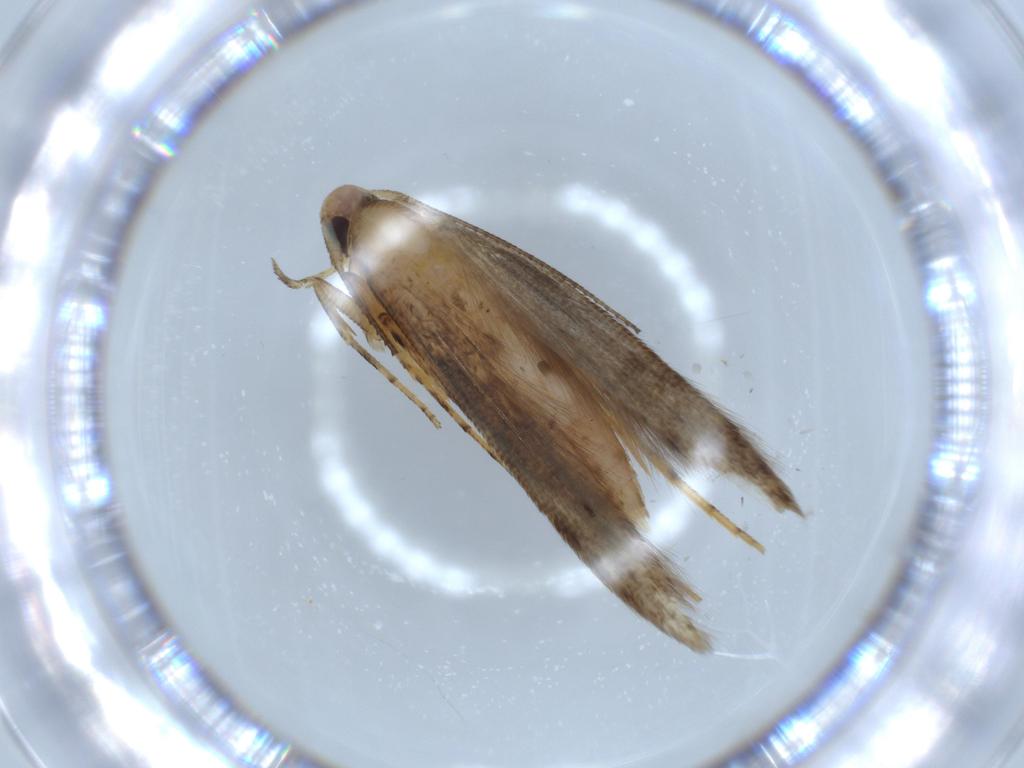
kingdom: Animalia
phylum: Arthropoda
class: Insecta
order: Lepidoptera
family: Heliodinidae
